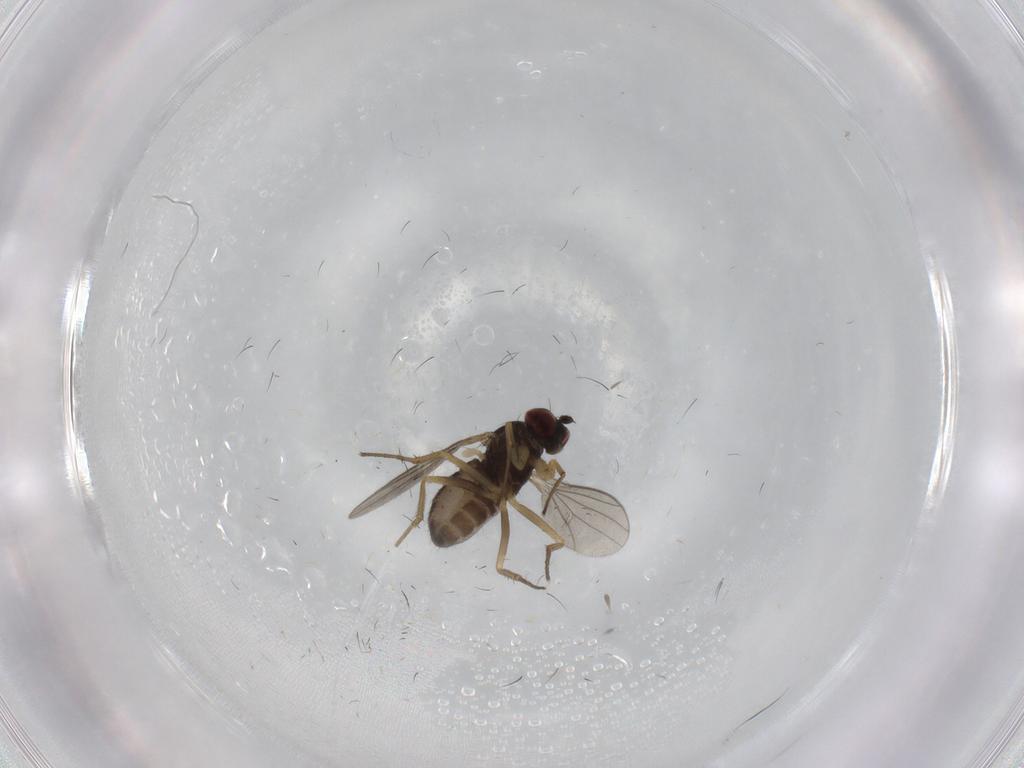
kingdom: Animalia
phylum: Arthropoda
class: Insecta
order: Diptera
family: Dolichopodidae
